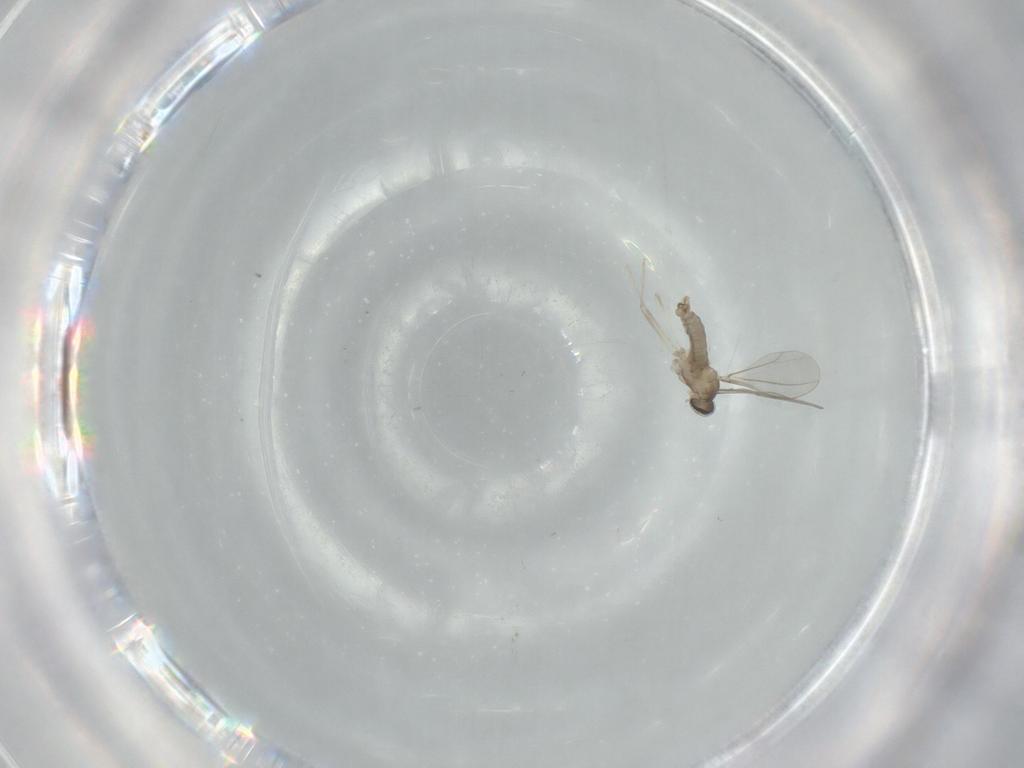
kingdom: Animalia
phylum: Arthropoda
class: Insecta
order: Diptera
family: Cecidomyiidae
